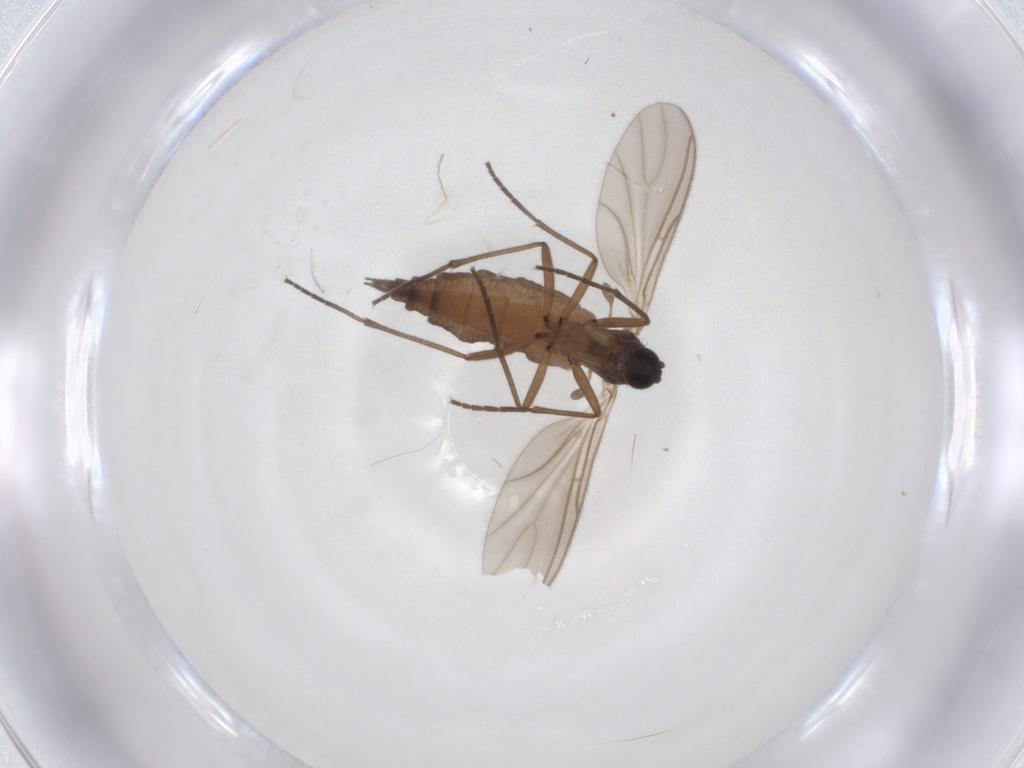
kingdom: Animalia
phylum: Arthropoda
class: Insecta
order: Diptera
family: Sciaridae
